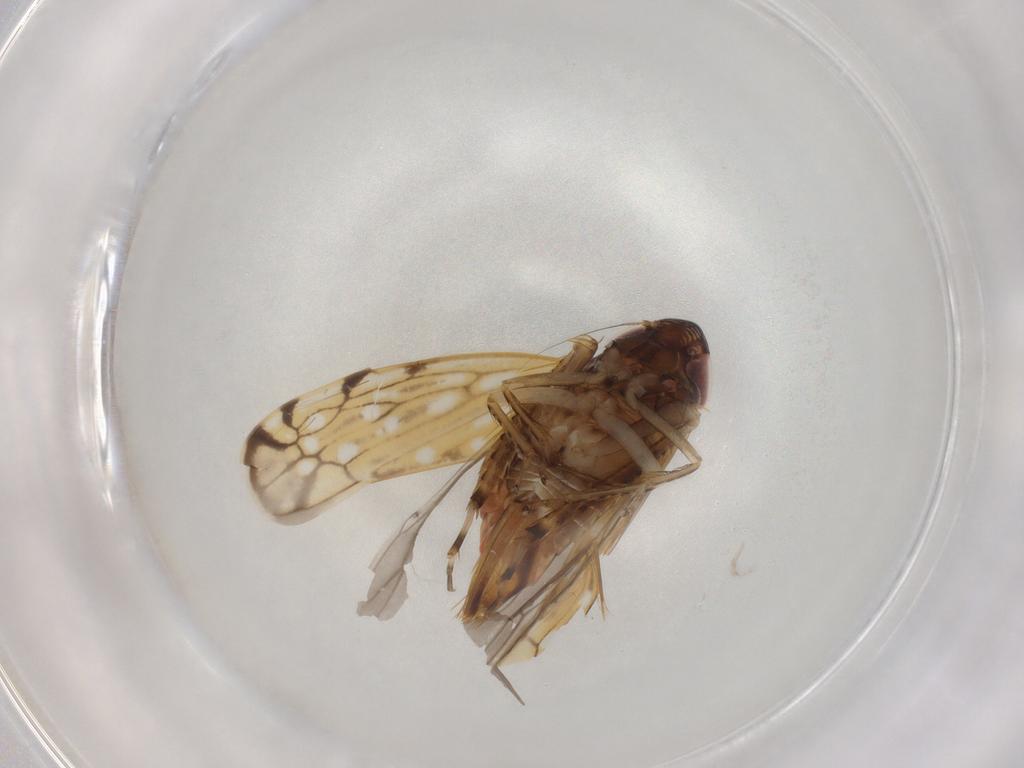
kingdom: Animalia
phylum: Arthropoda
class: Insecta
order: Hemiptera
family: Cicadellidae
